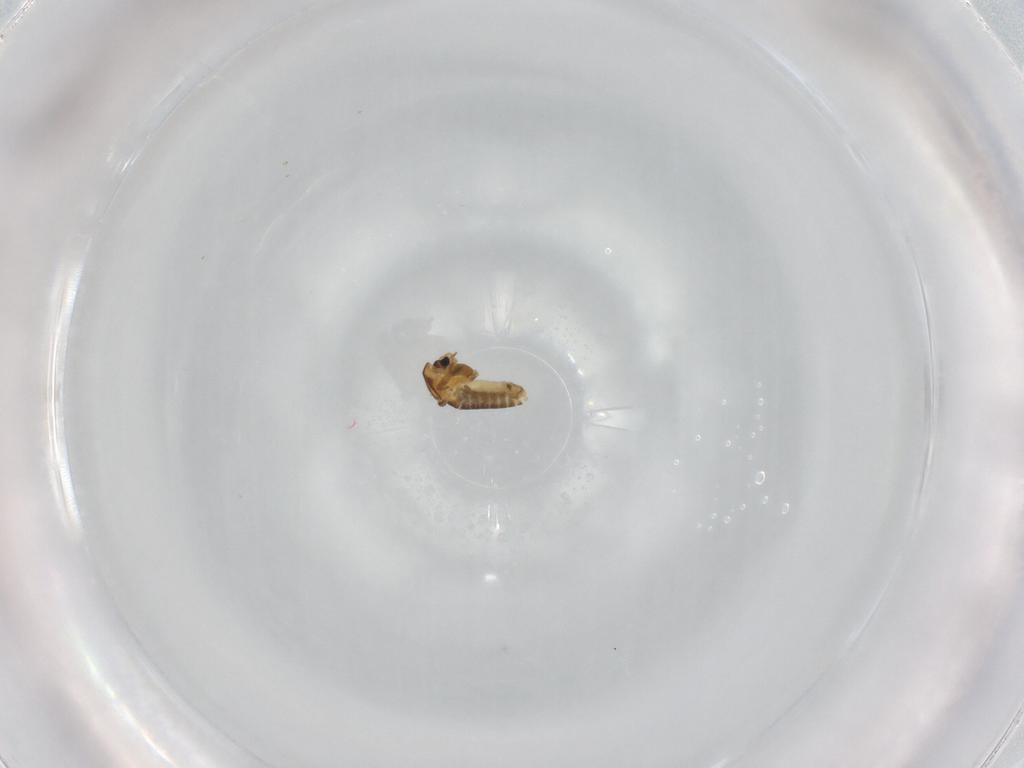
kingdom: Animalia
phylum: Arthropoda
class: Insecta
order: Diptera
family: Chironomidae
